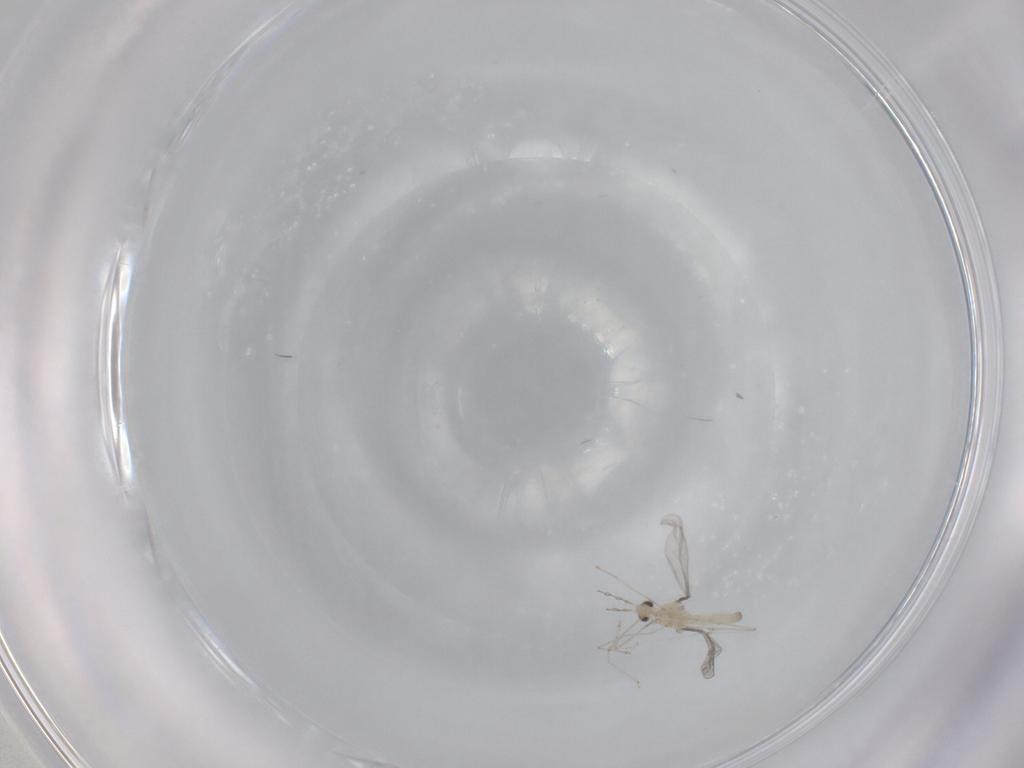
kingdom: Animalia
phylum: Arthropoda
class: Insecta
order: Diptera
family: Cecidomyiidae
